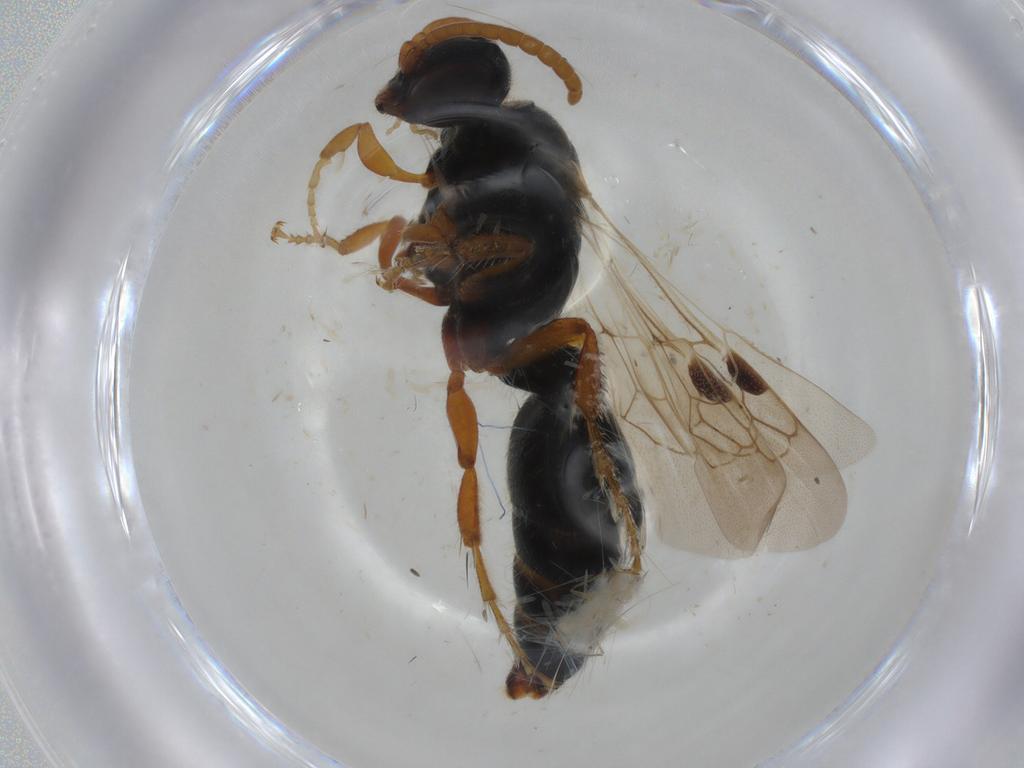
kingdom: Animalia
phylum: Arthropoda
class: Insecta
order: Hymenoptera
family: Tiphiidae
